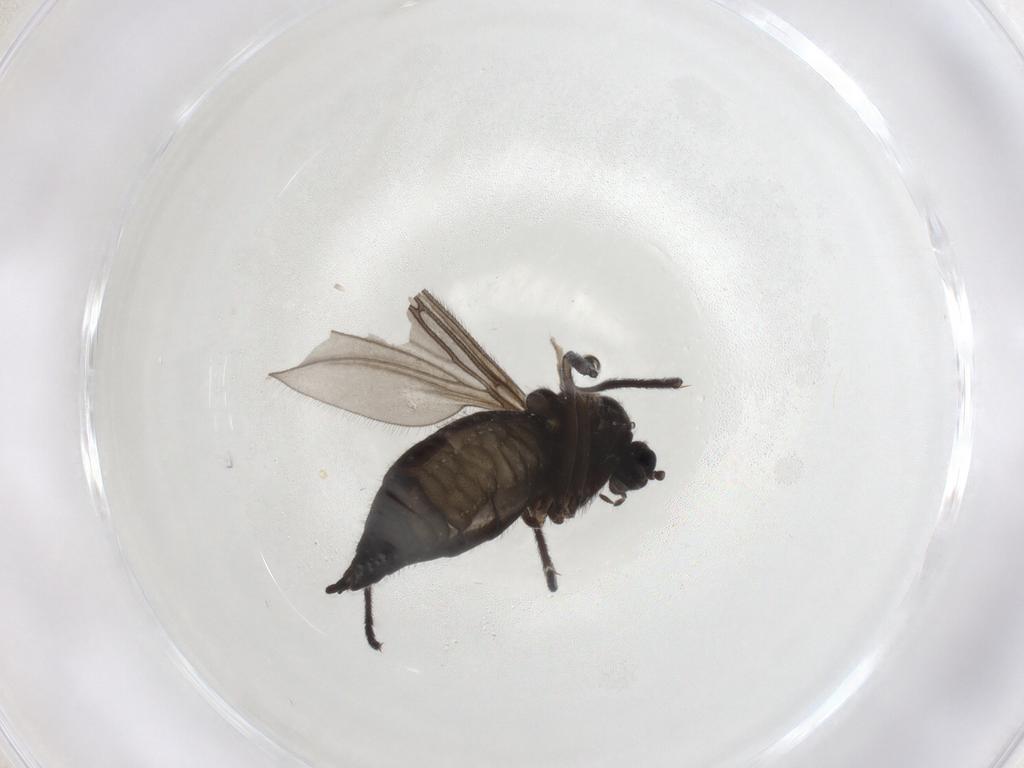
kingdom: Animalia
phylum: Arthropoda
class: Insecta
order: Diptera
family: Sciaridae
